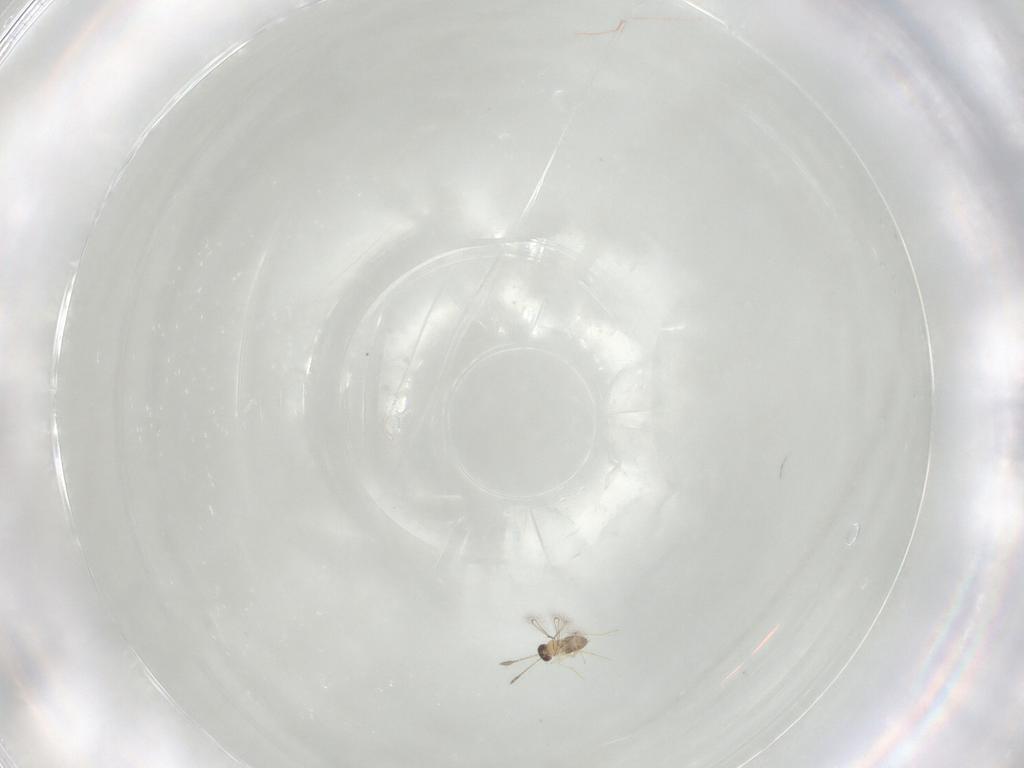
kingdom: Animalia
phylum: Arthropoda
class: Insecta
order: Hymenoptera
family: Mymaridae
